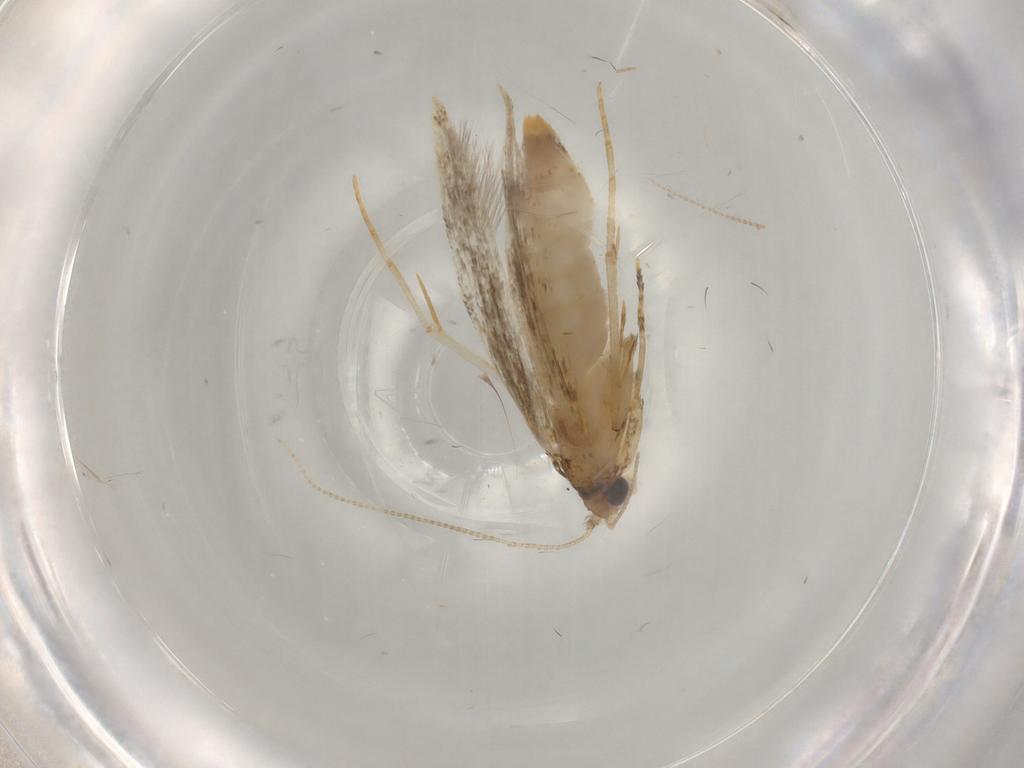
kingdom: Animalia
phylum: Arthropoda
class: Insecta
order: Lepidoptera
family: Tineidae
